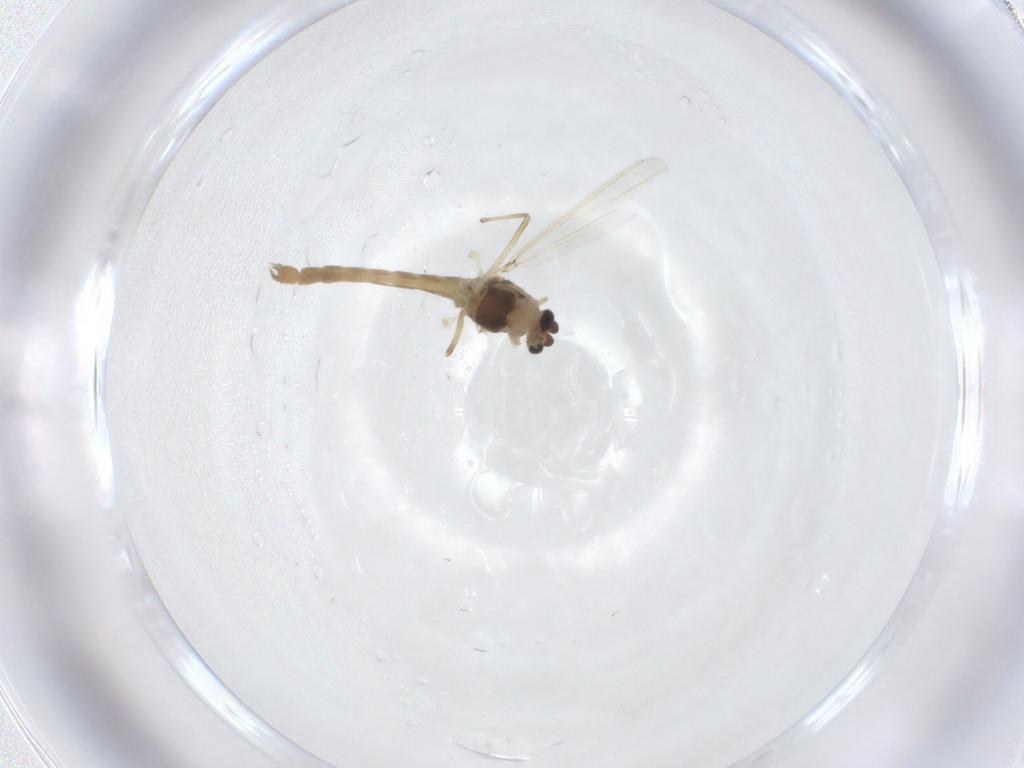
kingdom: Animalia
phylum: Arthropoda
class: Insecta
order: Diptera
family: Chironomidae
